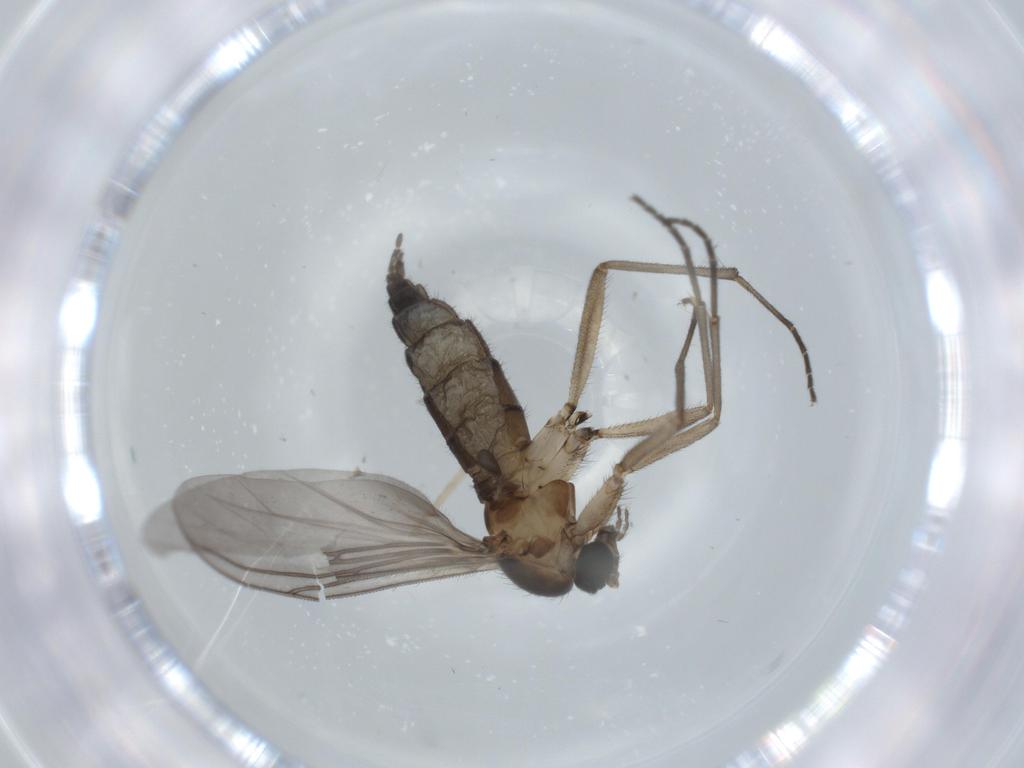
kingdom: Animalia
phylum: Arthropoda
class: Insecta
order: Diptera
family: Sciaridae
